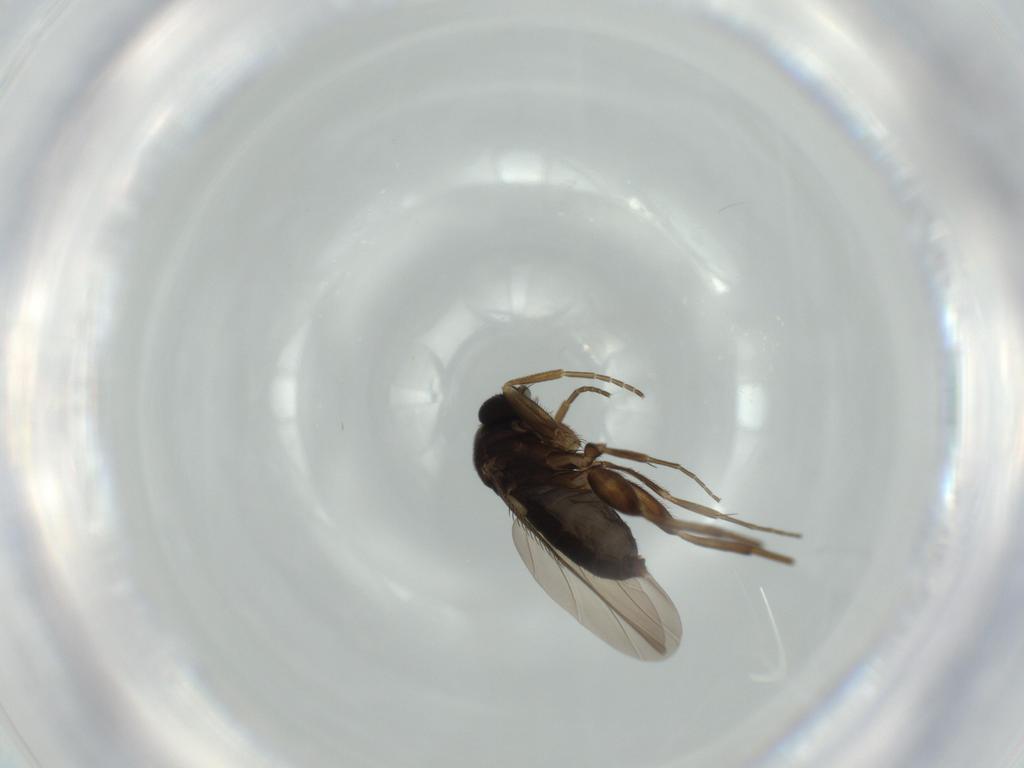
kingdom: Animalia
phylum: Arthropoda
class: Insecta
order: Diptera
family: Phoridae
